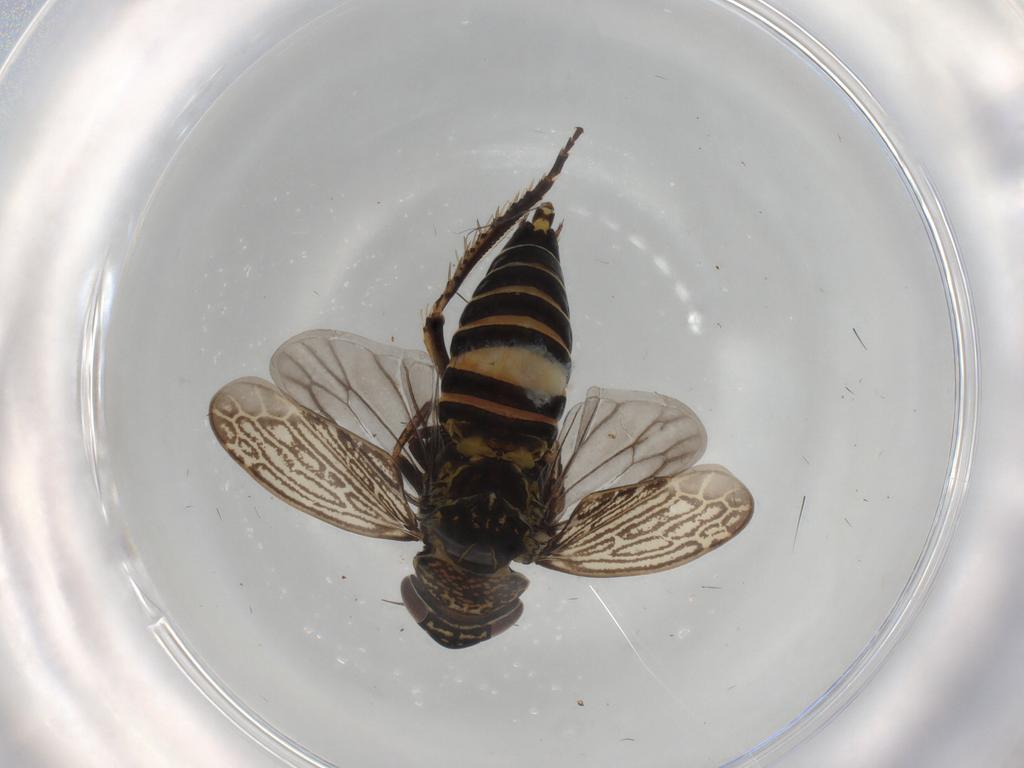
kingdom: Animalia
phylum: Arthropoda
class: Insecta
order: Hemiptera
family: Cicadellidae
